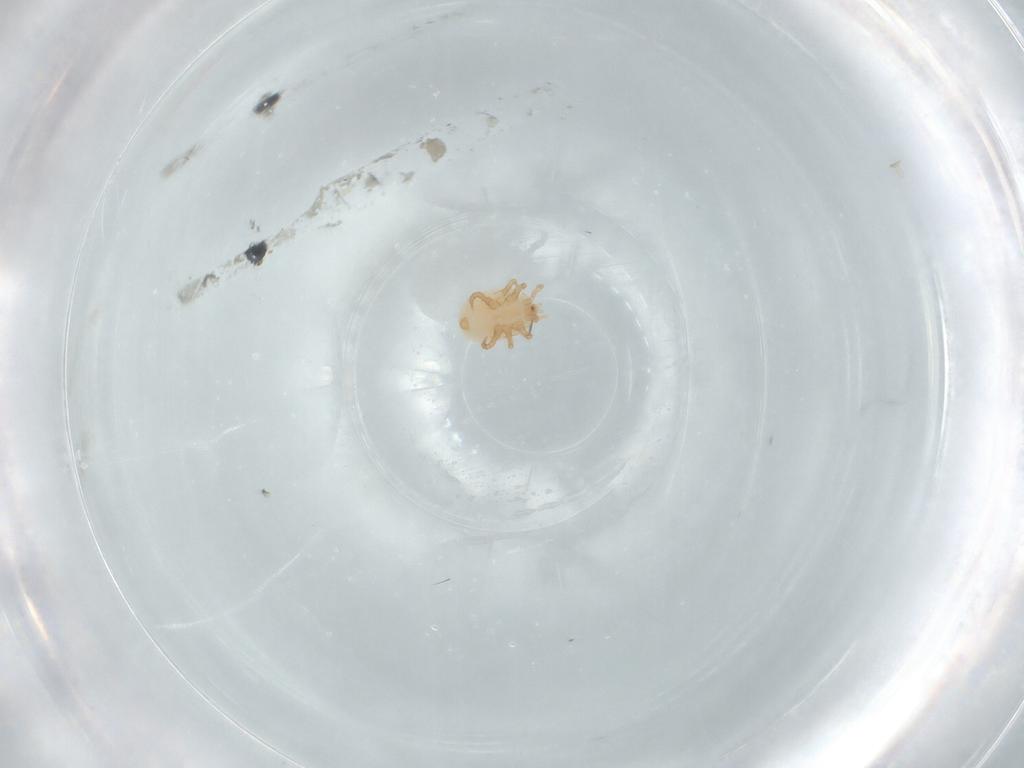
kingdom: Animalia
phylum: Arthropoda
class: Arachnida
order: Mesostigmata
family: Halolaelapidae
